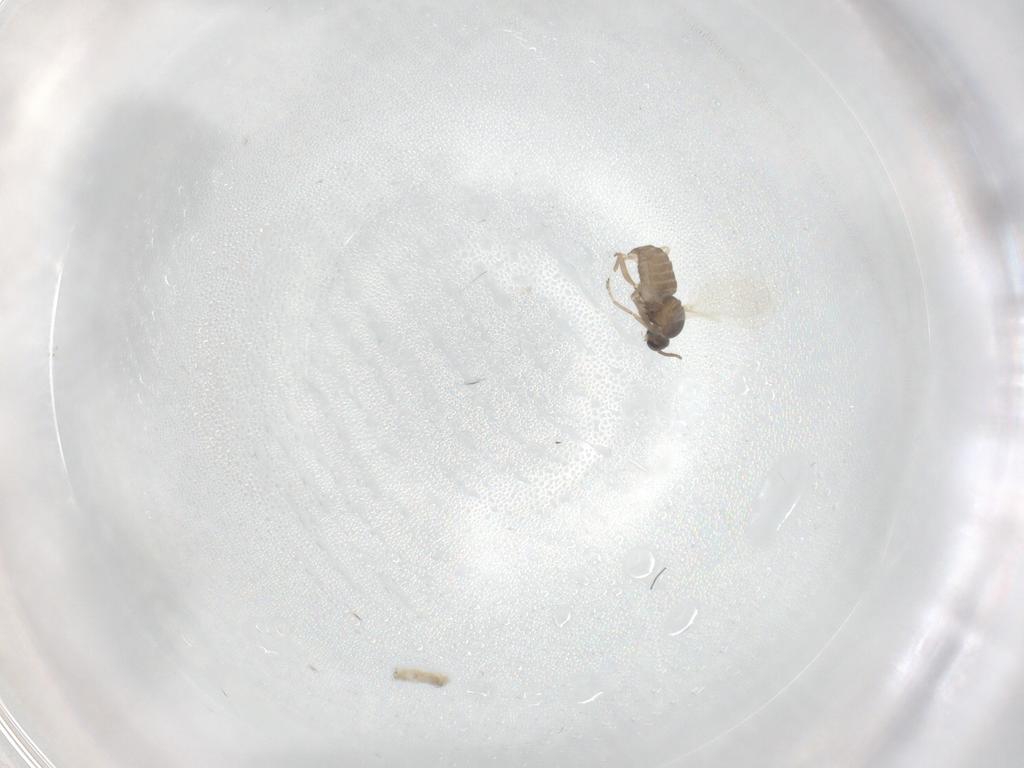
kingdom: Animalia
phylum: Arthropoda
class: Insecta
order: Diptera
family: Cecidomyiidae
